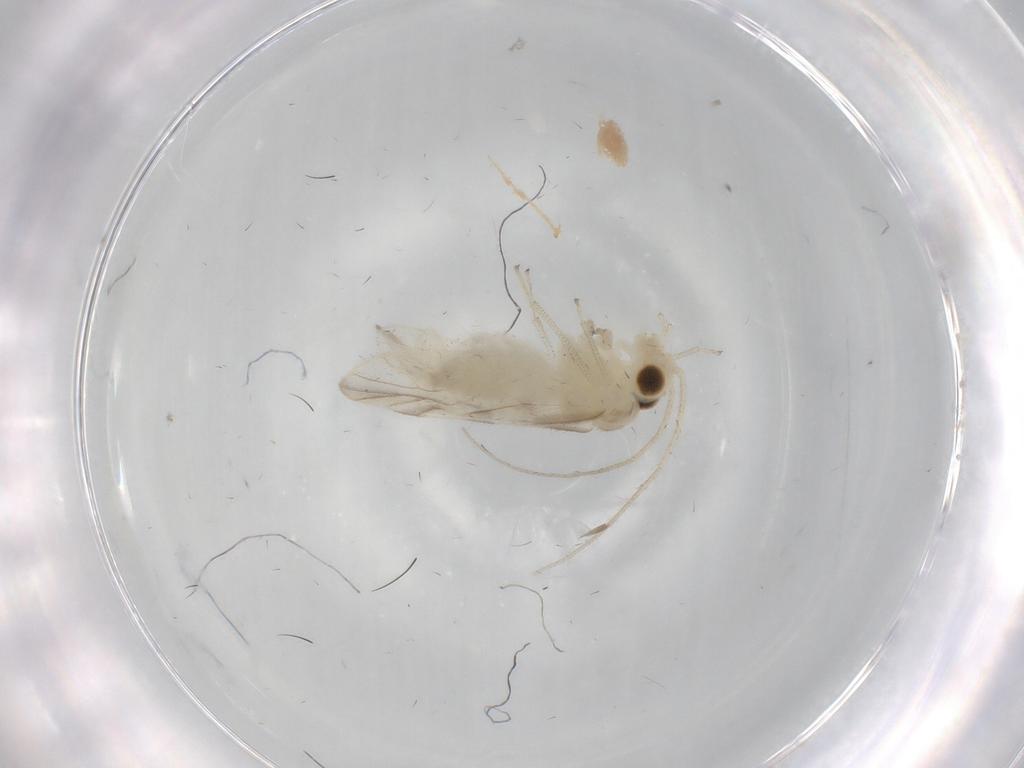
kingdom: Animalia
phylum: Arthropoda
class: Insecta
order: Psocodea
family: Caeciliusidae
